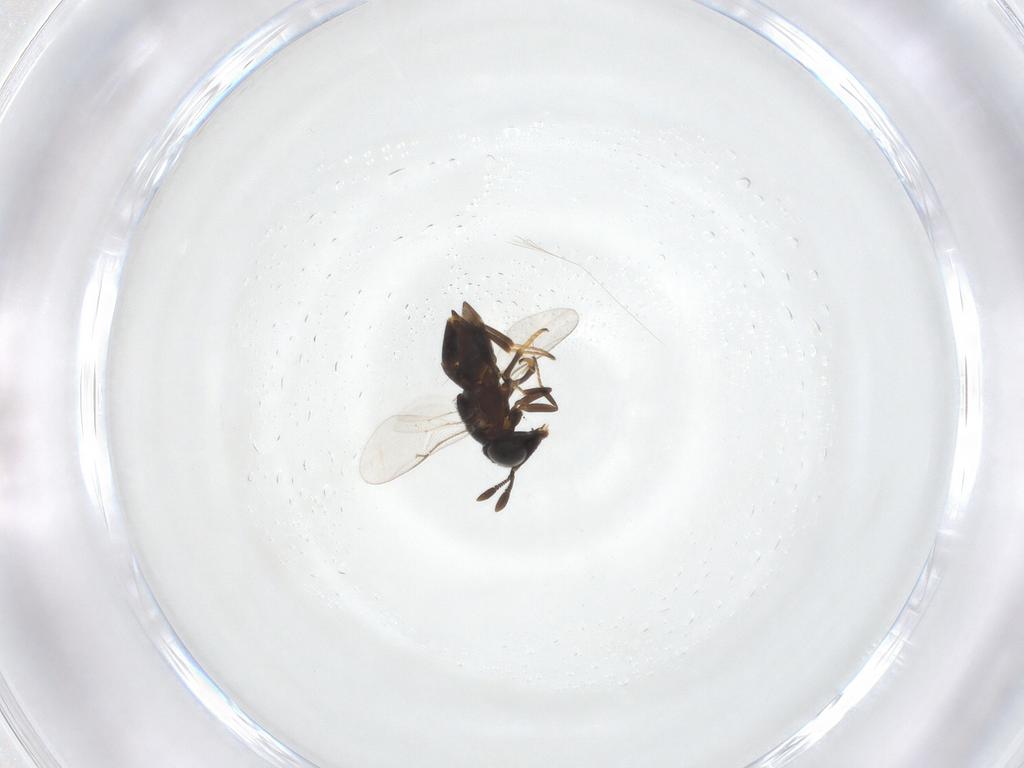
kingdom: Animalia
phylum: Arthropoda
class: Insecta
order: Hymenoptera
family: Encyrtidae
